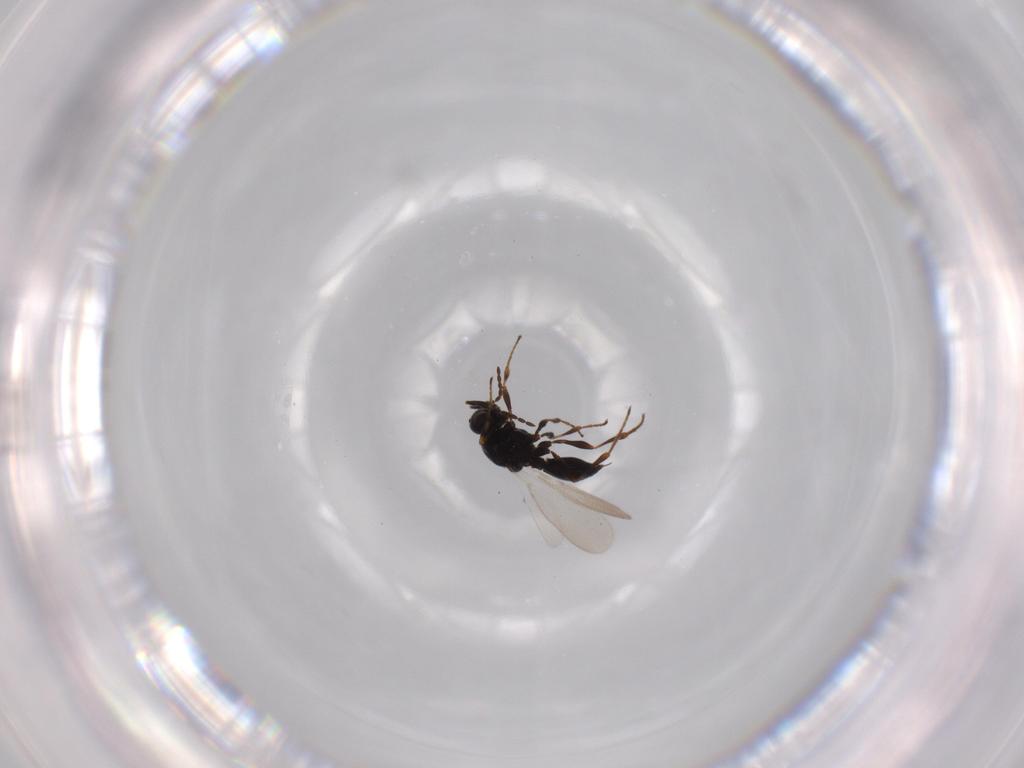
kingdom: Animalia
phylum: Arthropoda
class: Insecta
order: Hymenoptera
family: Platygastridae
